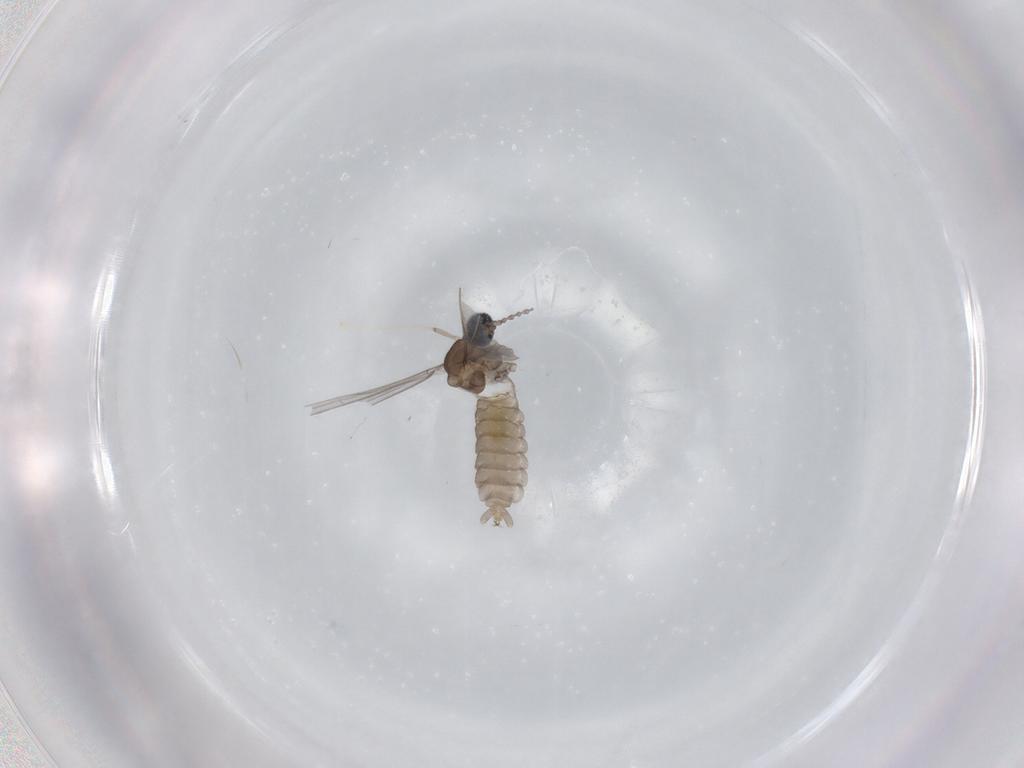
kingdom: Animalia
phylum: Arthropoda
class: Insecta
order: Diptera
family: Cecidomyiidae
